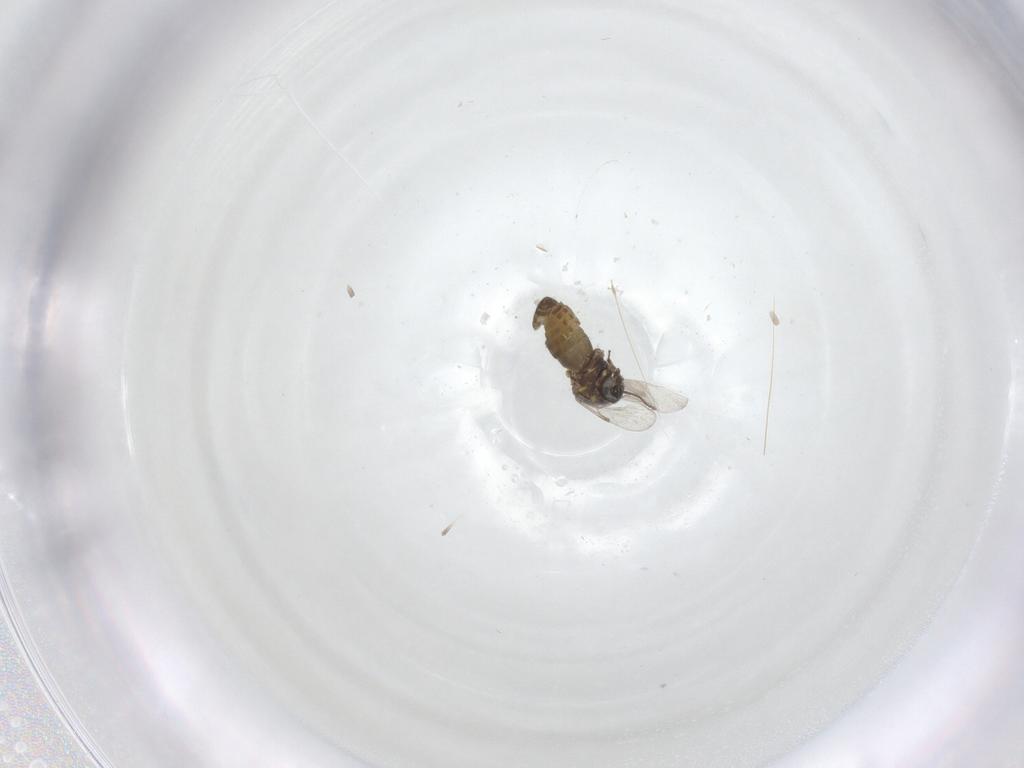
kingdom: Animalia
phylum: Arthropoda
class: Insecta
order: Diptera
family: Ceratopogonidae
